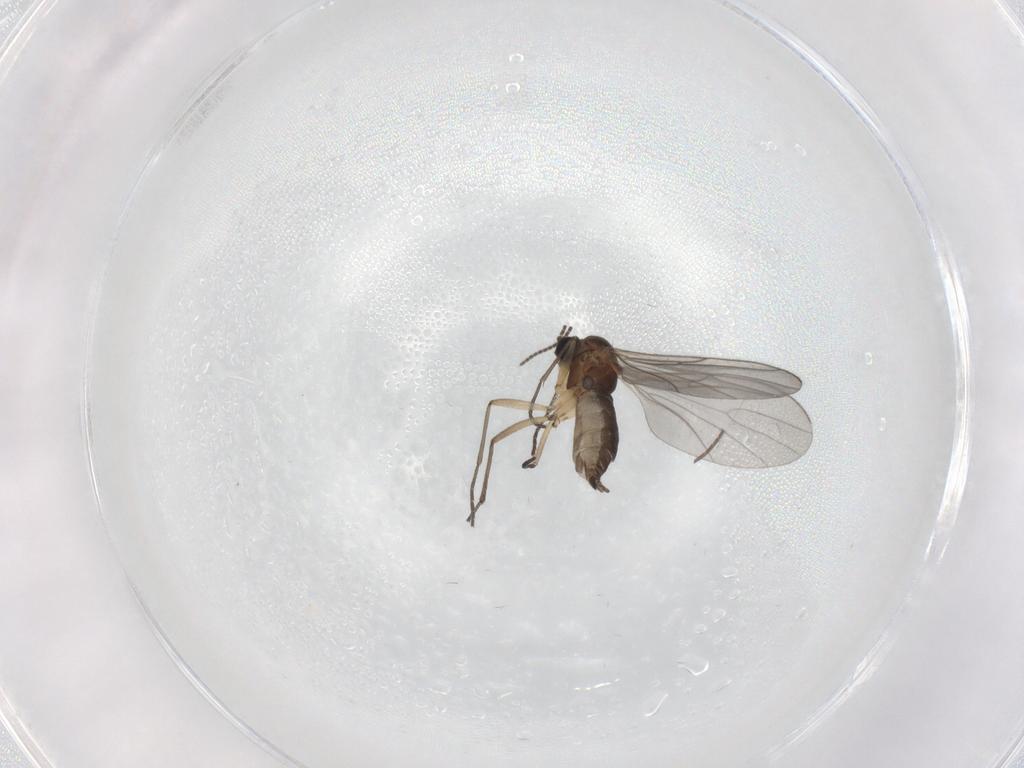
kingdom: Animalia
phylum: Arthropoda
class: Insecta
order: Diptera
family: Sciaridae
